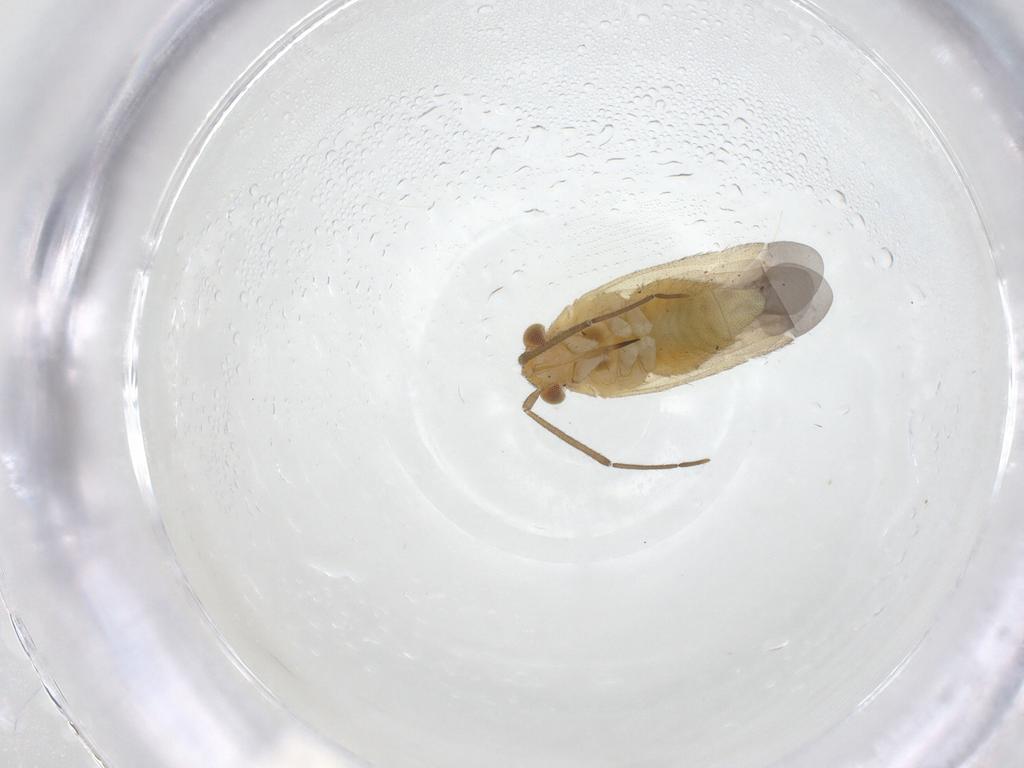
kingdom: Animalia
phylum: Arthropoda
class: Insecta
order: Hemiptera
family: Miridae
